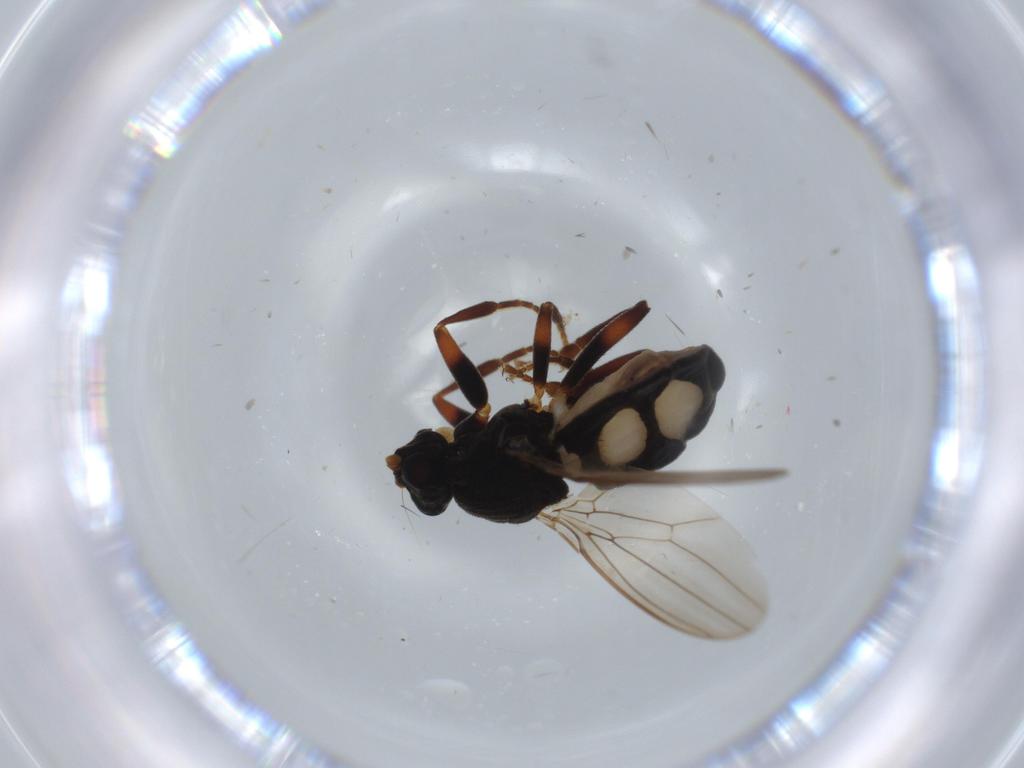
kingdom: Animalia
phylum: Arthropoda
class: Insecta
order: Diptera
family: Sphaeroceridae
